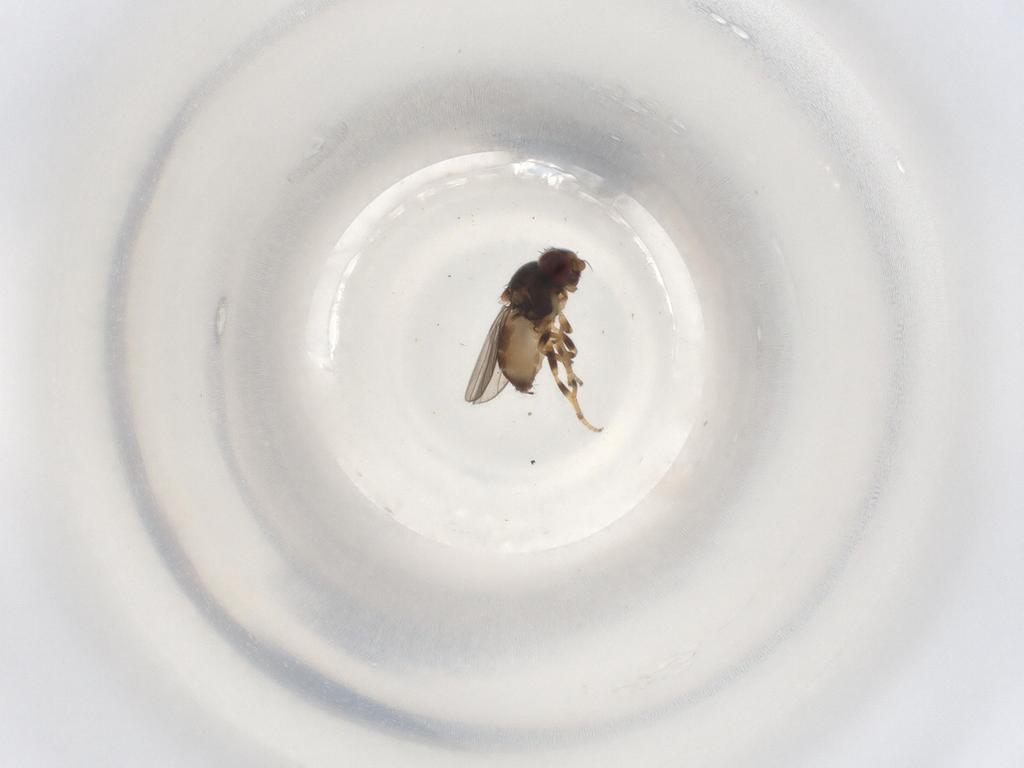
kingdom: Animalia
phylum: Arthropoda
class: Insecta
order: Diptera
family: Chloropidae
